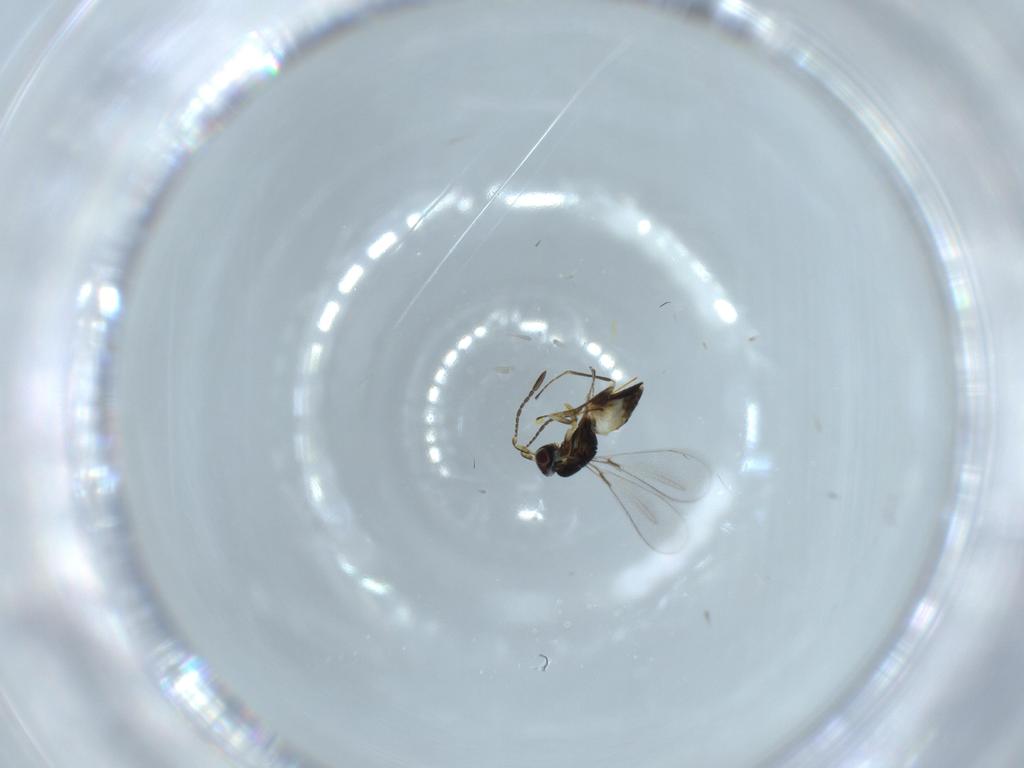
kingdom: Animalia
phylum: Arthropoda
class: Insecta
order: Hymenoptera
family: Mymaridae
